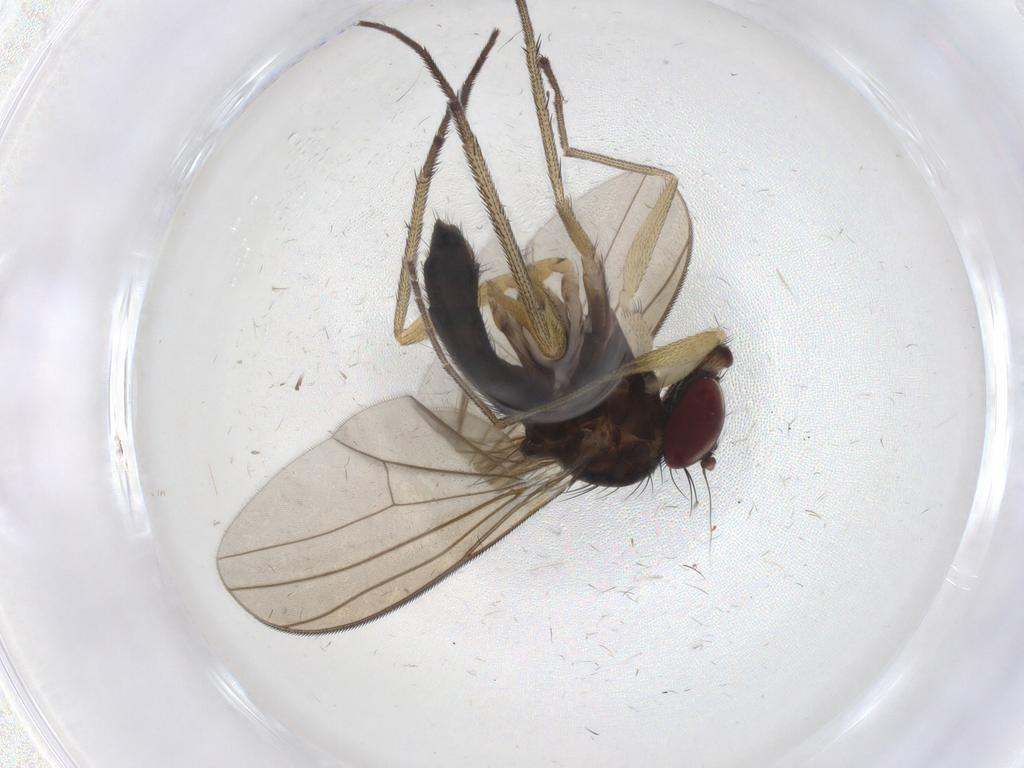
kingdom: Animalia
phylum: Arthropoda
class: Insecta
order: Diptera
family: Dolichopodidae
